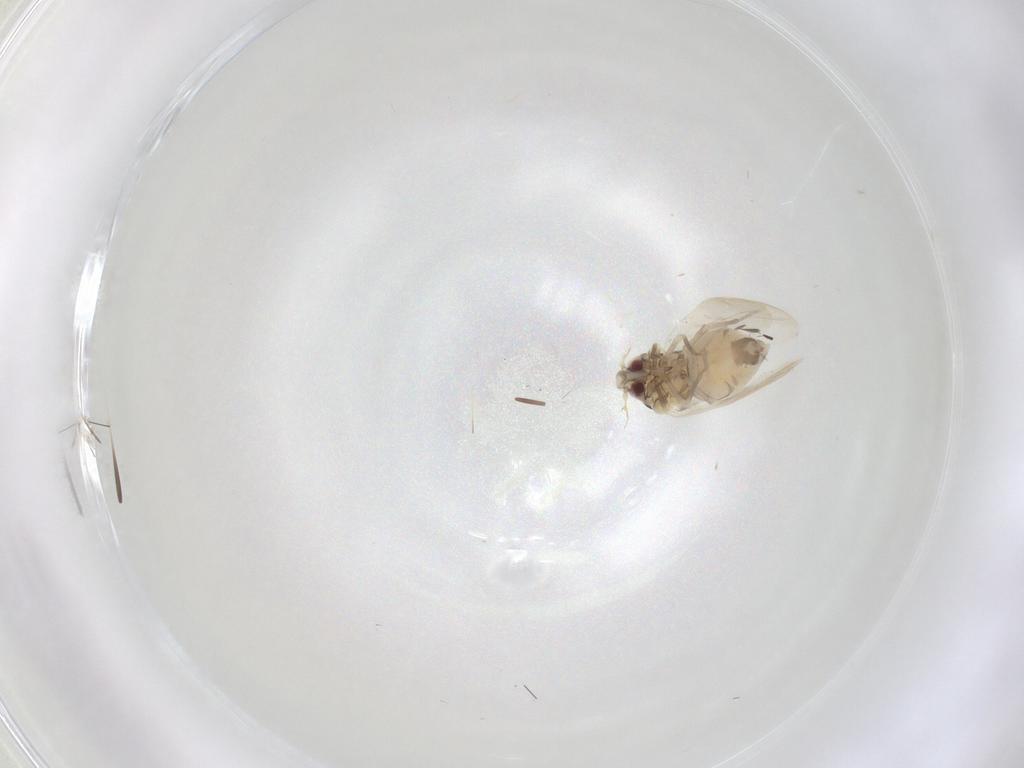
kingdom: Animalia
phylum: Arthropoda
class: Insecta
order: Hemiptera
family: Aleyrodidae
